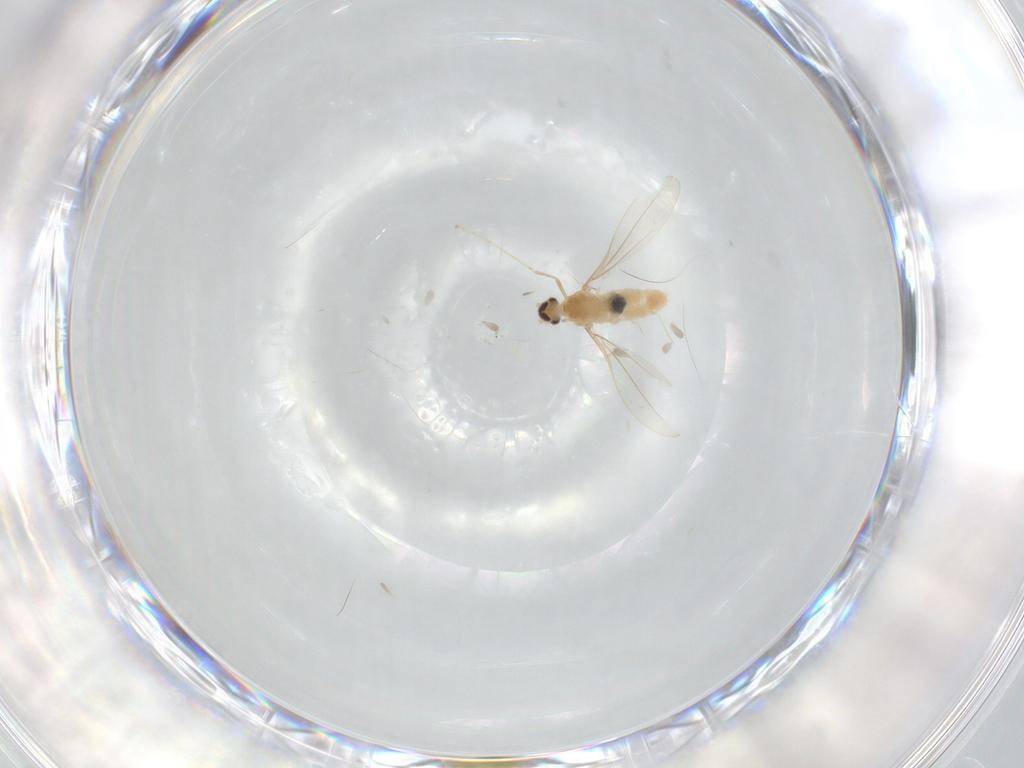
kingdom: Animalia
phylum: Arthropoda
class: Insecta
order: Diptera
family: Cecidomyiidae
